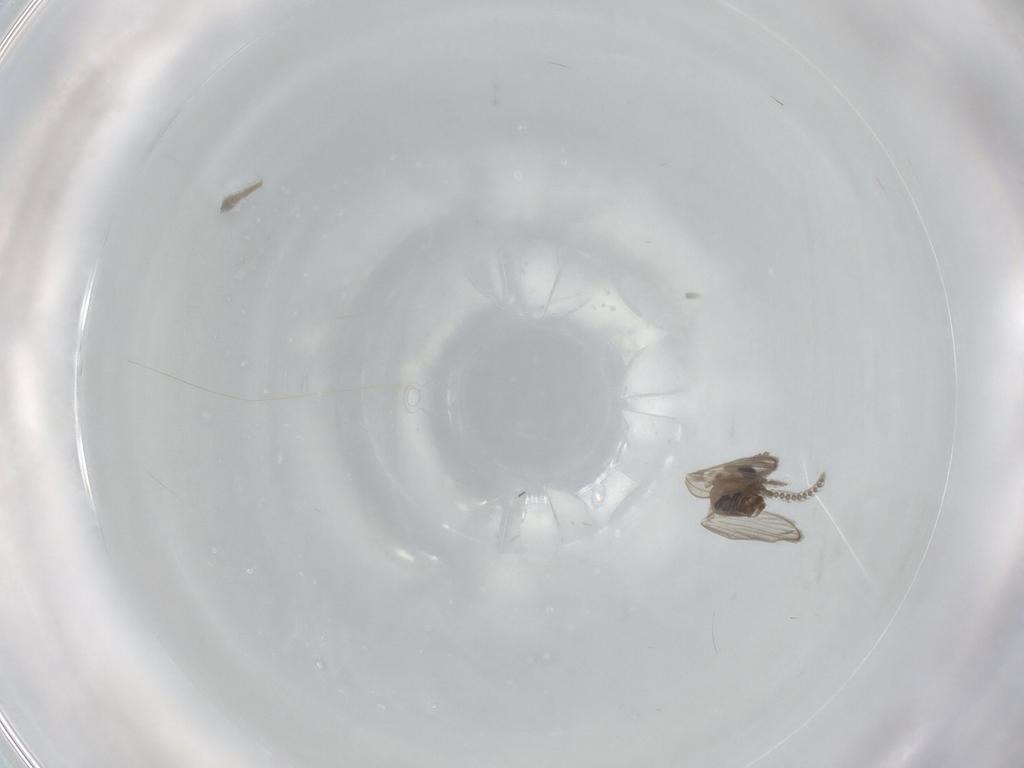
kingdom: Animalia
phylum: Arthropoda
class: Insecta
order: Diptera
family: Psychodidae
